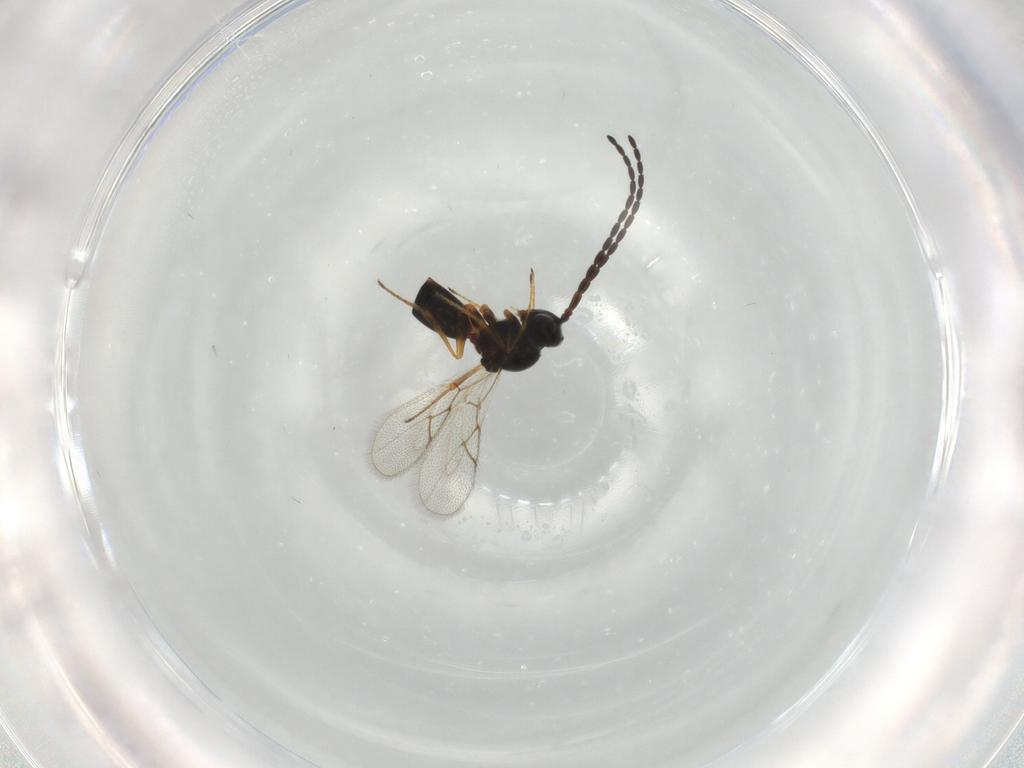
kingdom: Animalia
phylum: Arthropoda
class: Insecta
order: Hymenoptera
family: Figitidae
